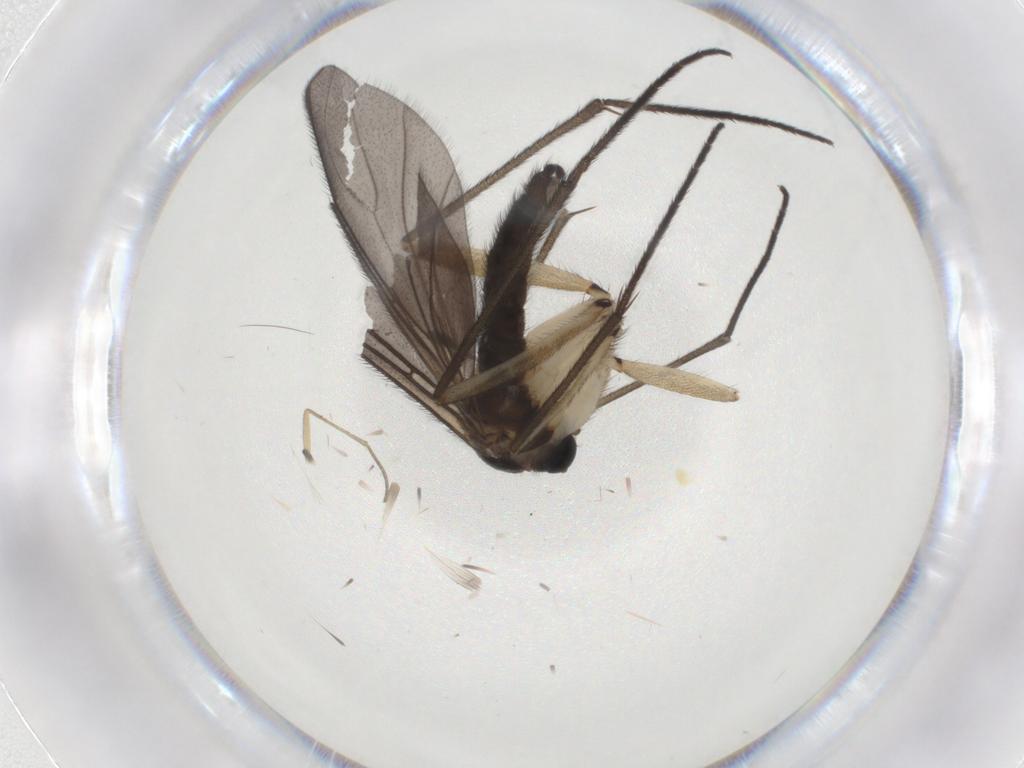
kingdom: Animalia
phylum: Arthropoda
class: Insecta
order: Diptera
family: Sciaridae
